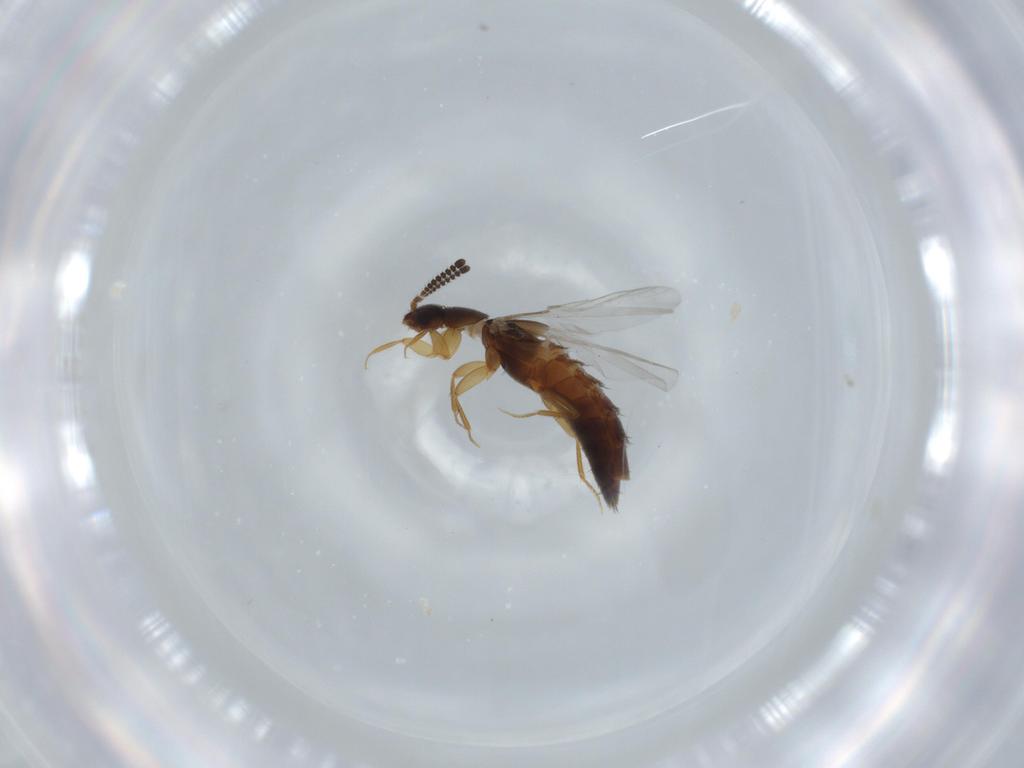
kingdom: Animalia
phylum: Arthropoda
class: Insecta
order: Coleoptera
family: Staphylinidae
